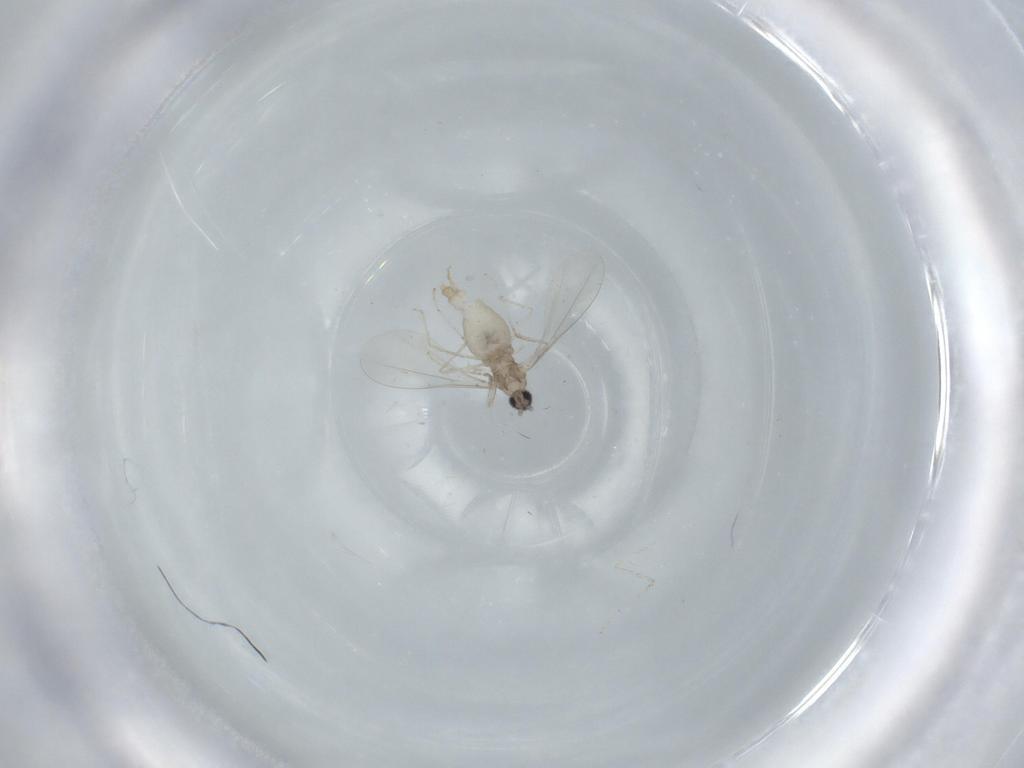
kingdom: Animalia
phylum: Arthropoda
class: Insecta
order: Diptera
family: Cecidomyiidae
